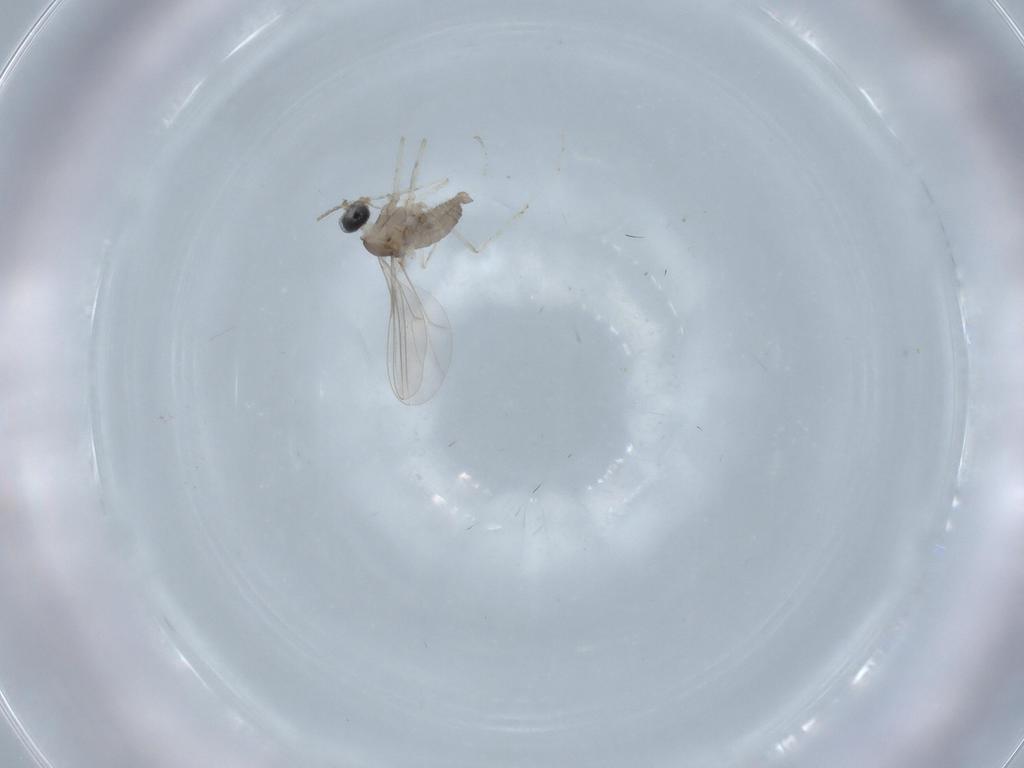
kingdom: Animalia
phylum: Arthropoda
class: Insecta
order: Diptera
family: Cecidomyiidae
